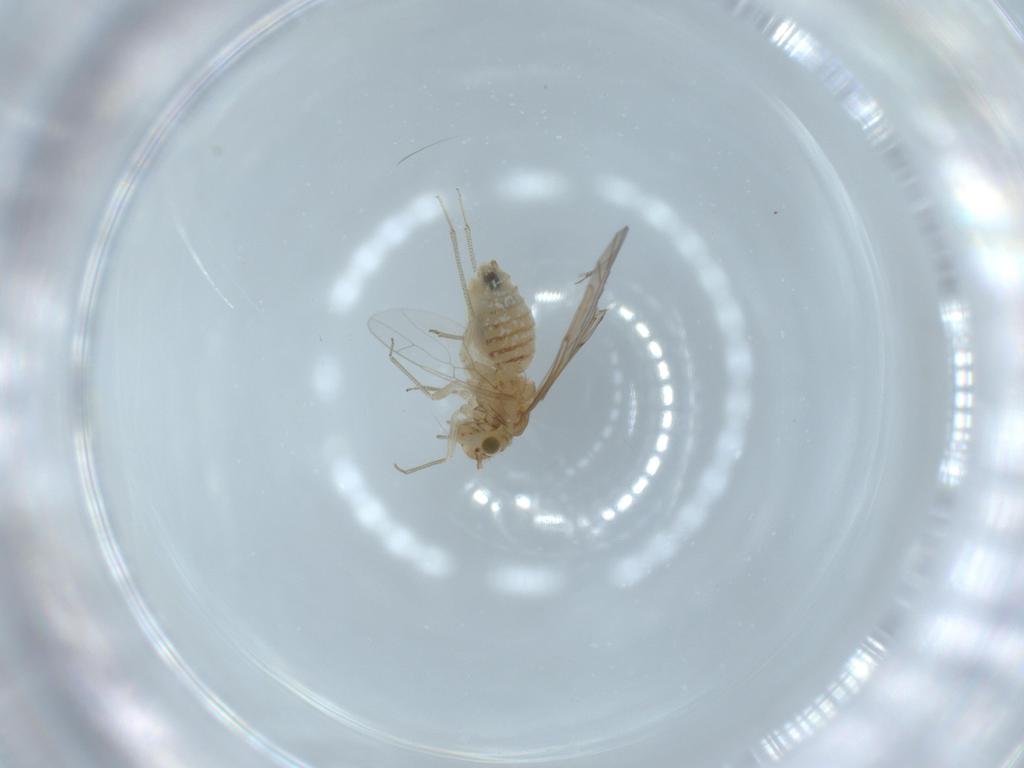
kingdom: Animalia
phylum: Arthropoda
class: Insecta
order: Psocodea
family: Lachesillidae
